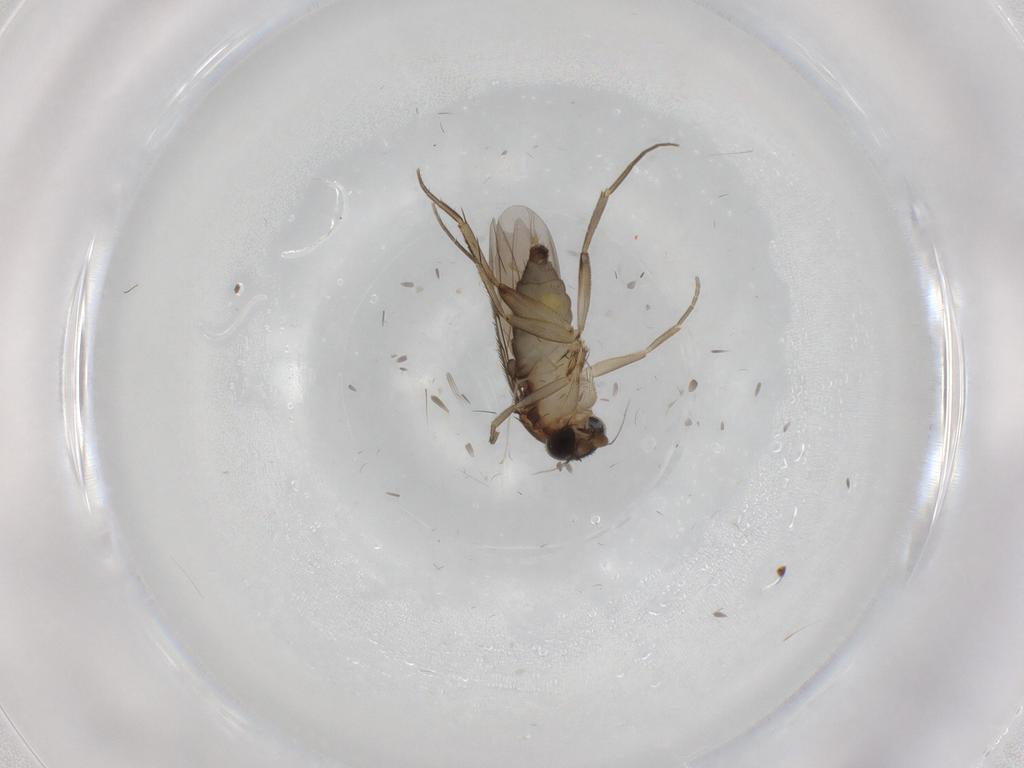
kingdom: Animalia
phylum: Arthropoda
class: Insecta
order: Diptera
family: Phoridae
